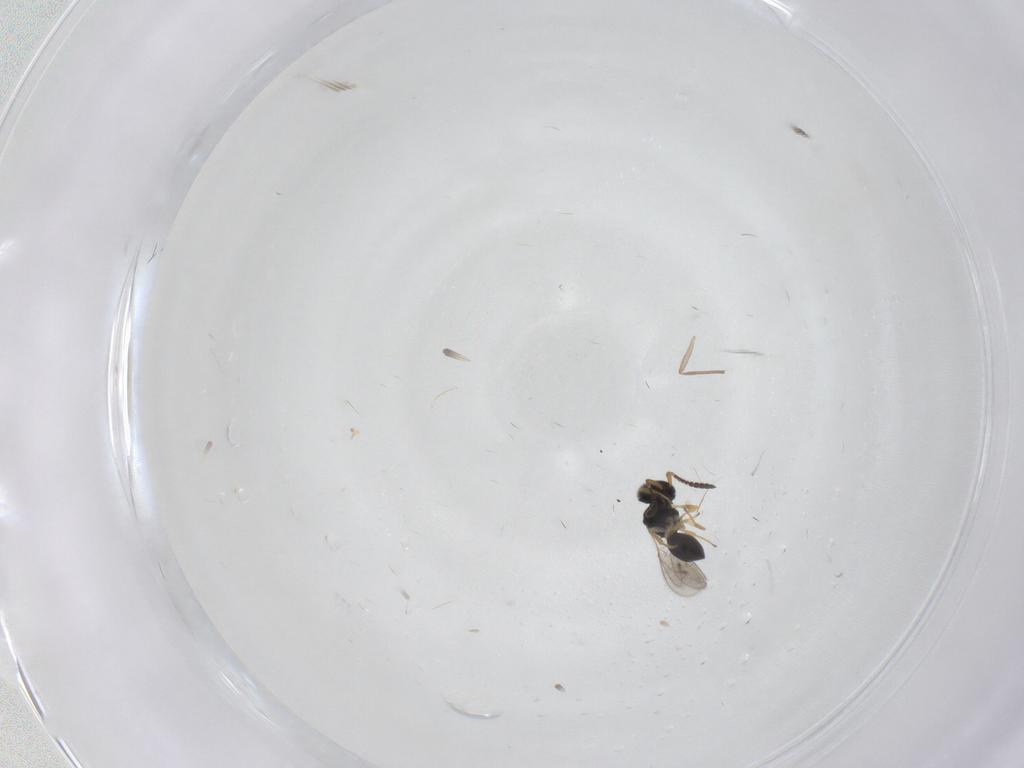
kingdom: Animalia
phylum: Arthropoda
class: Insecta
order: Hymenoptera
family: Scelionidae
